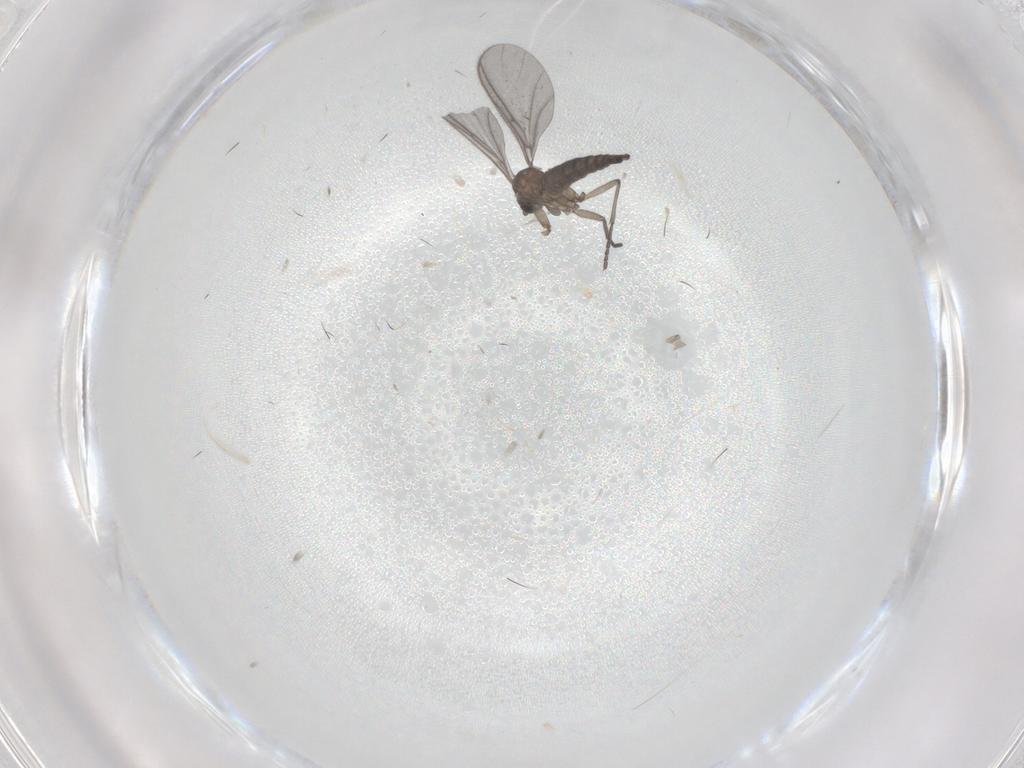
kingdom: Animalia
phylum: Arthropoda
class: Insecta
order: Diptera
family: Sciaridae
